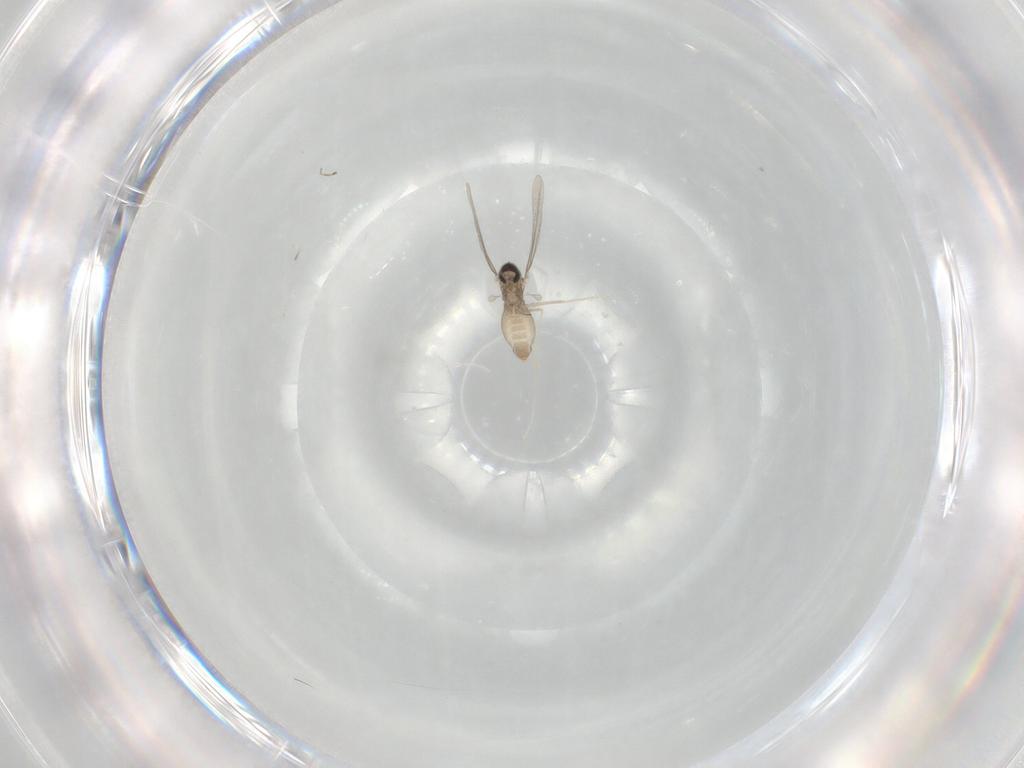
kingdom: Animalia
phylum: Arthropoda
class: Insecta
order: Diptera
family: Cecidomyiidae
